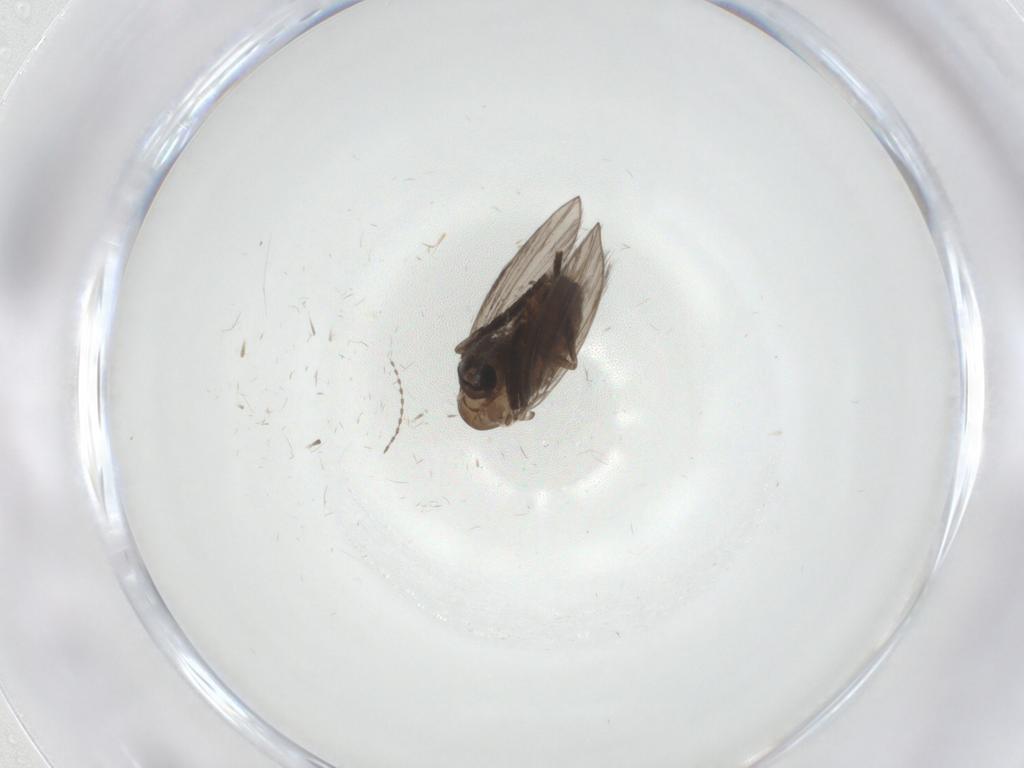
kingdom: Animalia
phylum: Arthropoda
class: Insecta
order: Diptera
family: Psychodidae
